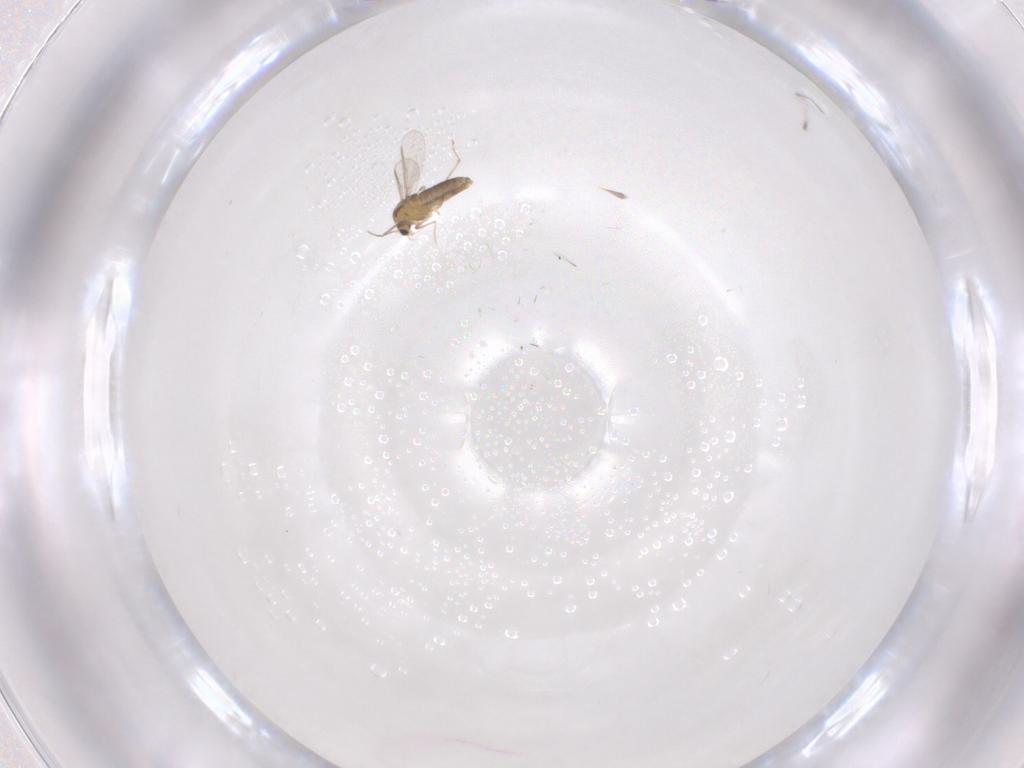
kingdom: Animalia
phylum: Arthropoda
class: Insecta
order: Diptera
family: Chironomidae
